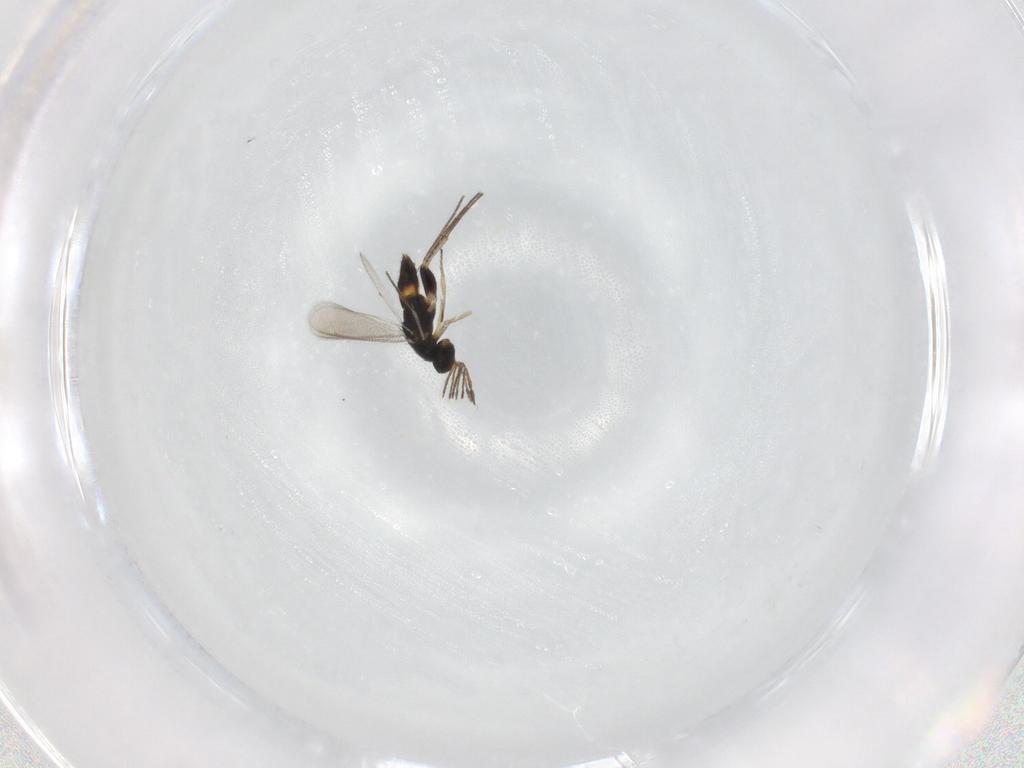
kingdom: Animalia
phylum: Arthropoda
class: Insecta
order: Hymenoptera
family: Eulophidae
